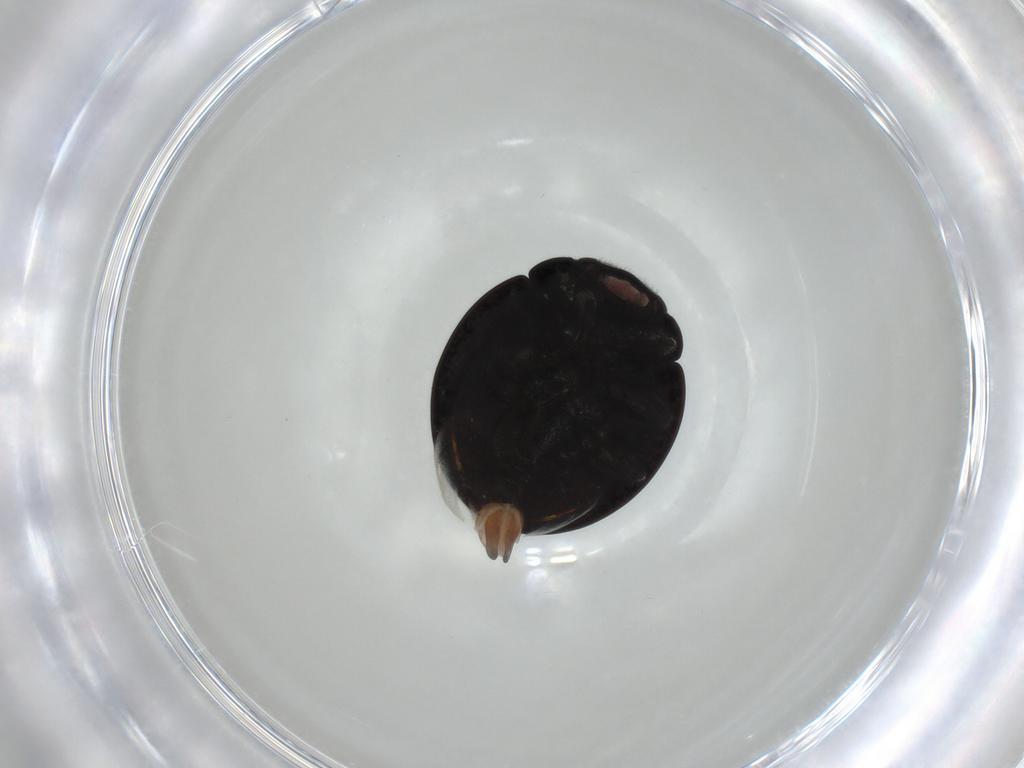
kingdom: Animalia
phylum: Arthropoda
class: Insecta
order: Coleoptera
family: Coccinellidae
